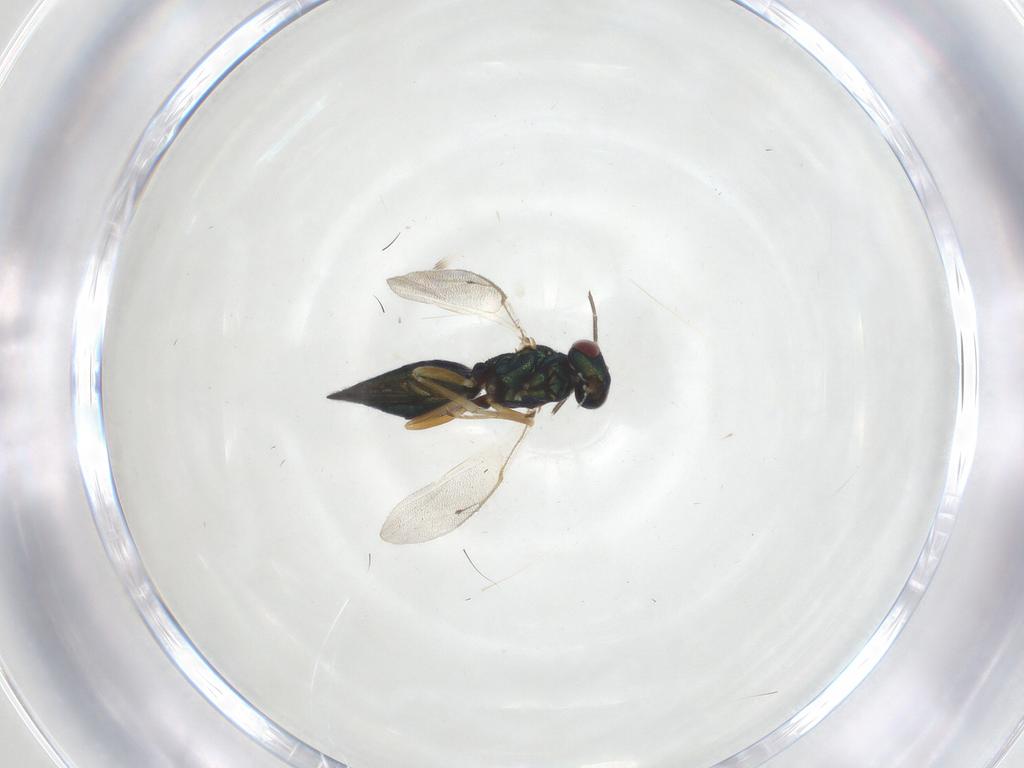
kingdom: Animalia
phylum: Arthropoda
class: Insecta
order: Hymenoptera
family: Pteromalidae
